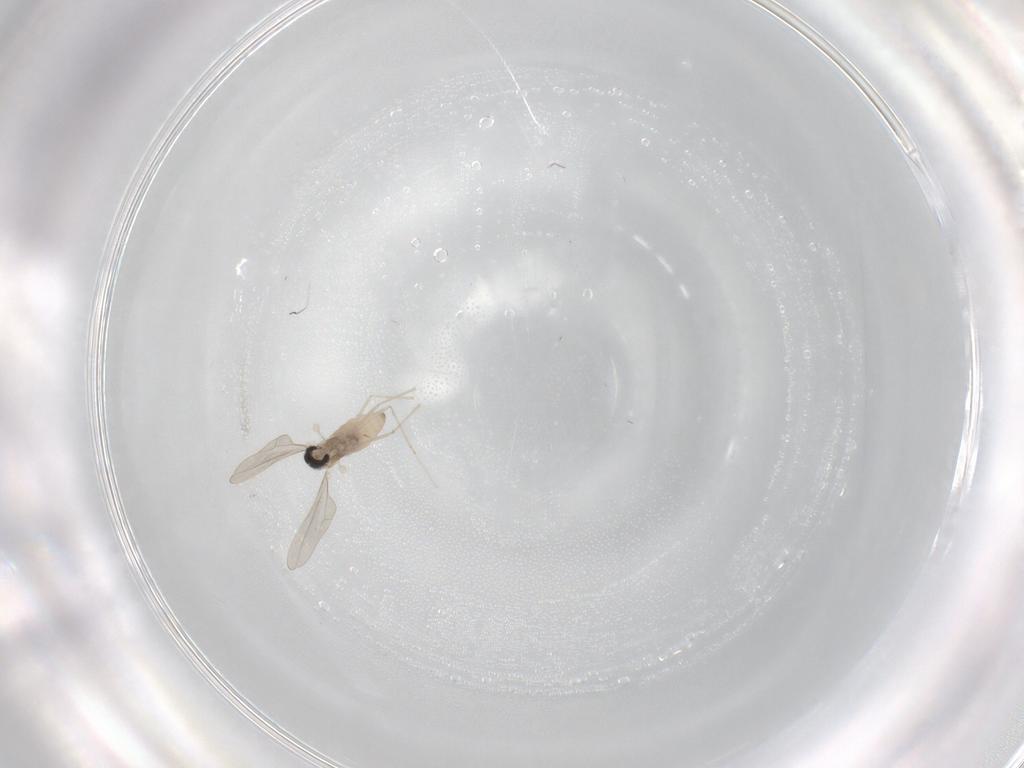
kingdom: Animalia
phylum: Arthropoda
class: Insecta
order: Diptera
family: Cecidomyiidae
